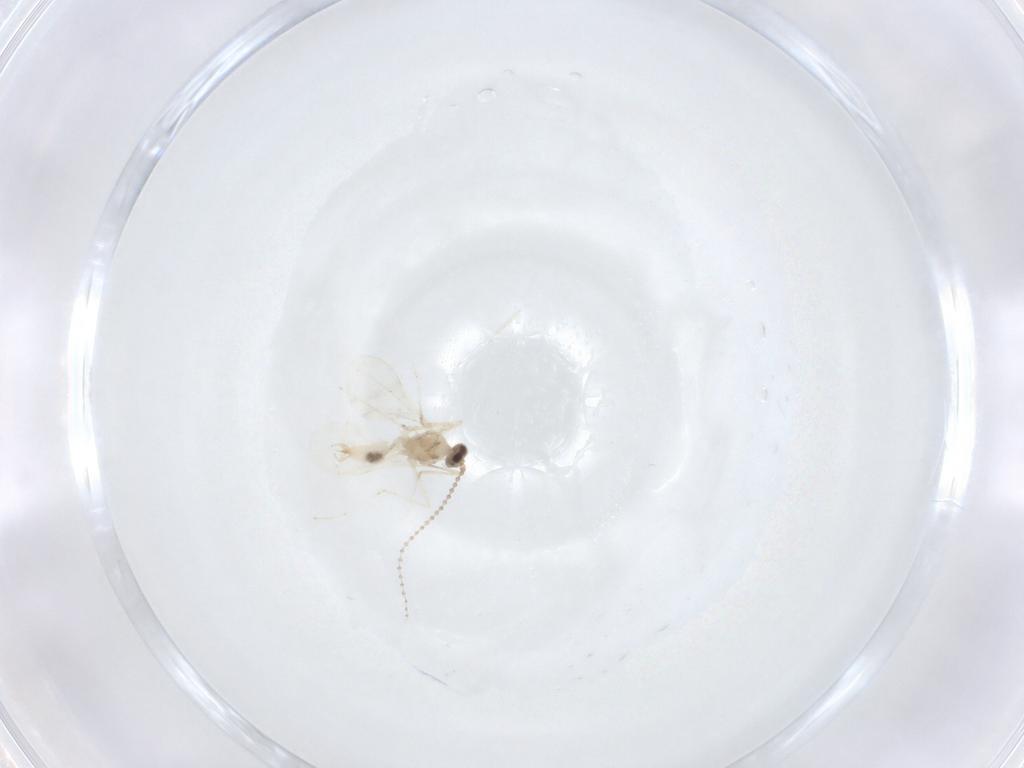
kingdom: Animalia
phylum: Arthropoda
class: Insecta
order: Diptera
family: Cecidomyiidae
